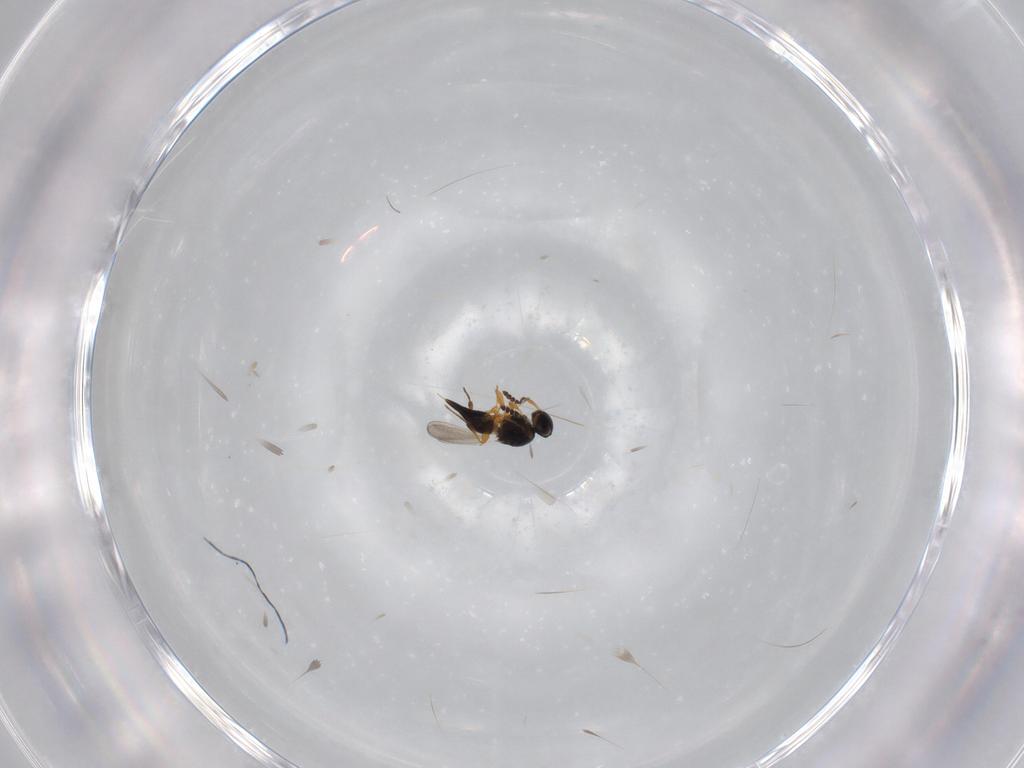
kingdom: Animalia
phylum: Arthropoda
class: Insecta
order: Hymenoptera
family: Platygastridae
